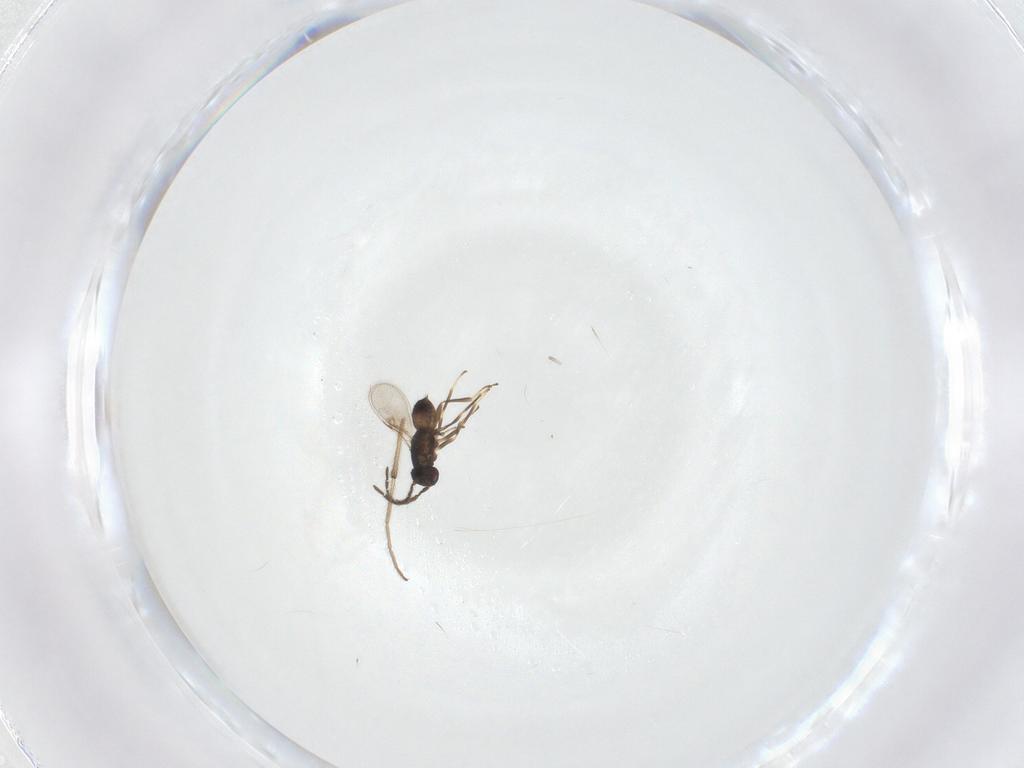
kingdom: Animalia
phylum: Arthropoda
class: Insecta
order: Hymenoptera
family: Encyrtidae
